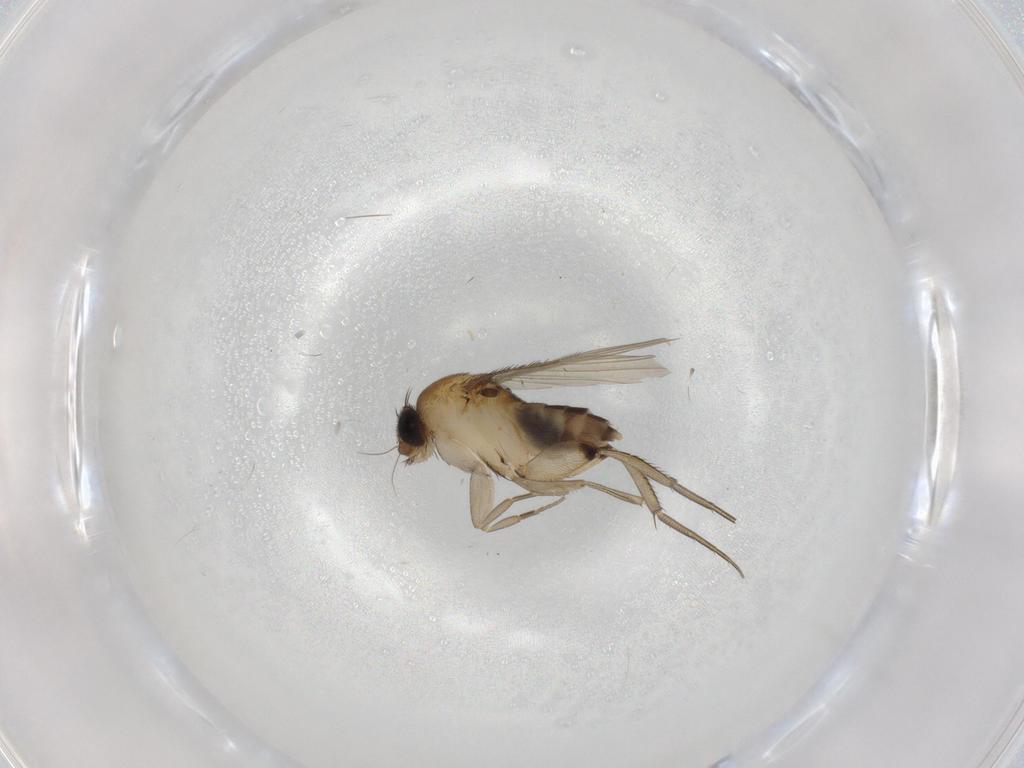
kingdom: Animalia
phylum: Arthropoda
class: Insecta
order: Diptera
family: Phoridae
